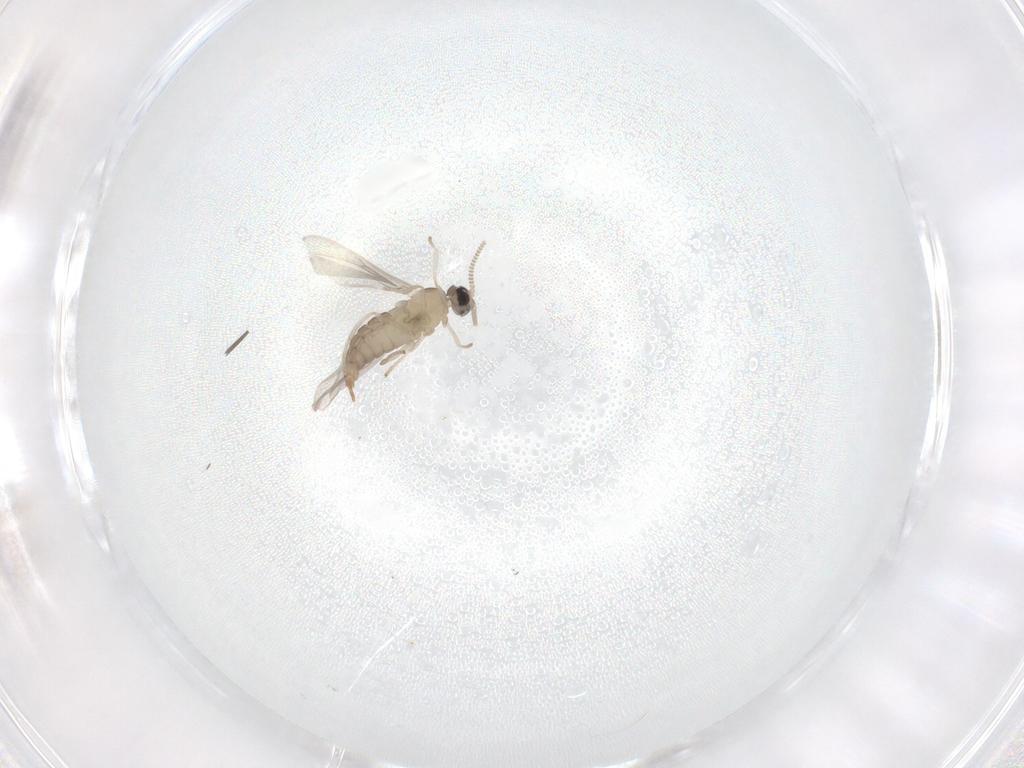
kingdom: Animalia
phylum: Arthropoda
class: Insecta
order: Diptera
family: Cecidomyiidae
